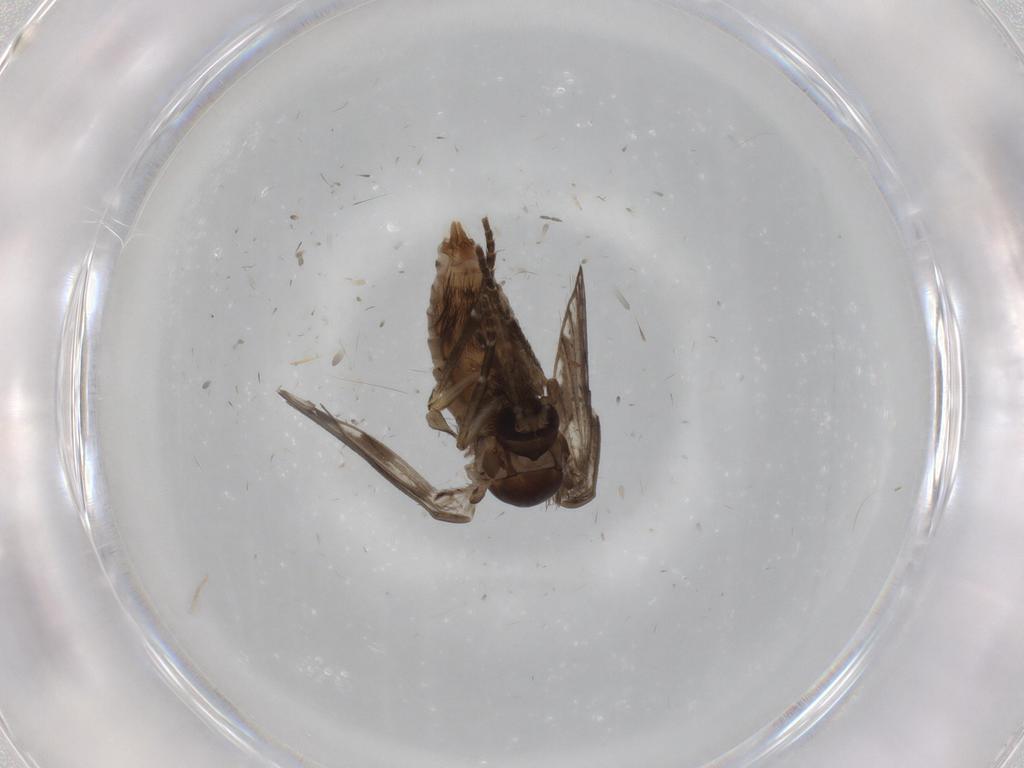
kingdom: Animalia
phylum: Arthropoda
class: Insecta
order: Diptera
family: Psychodidae
